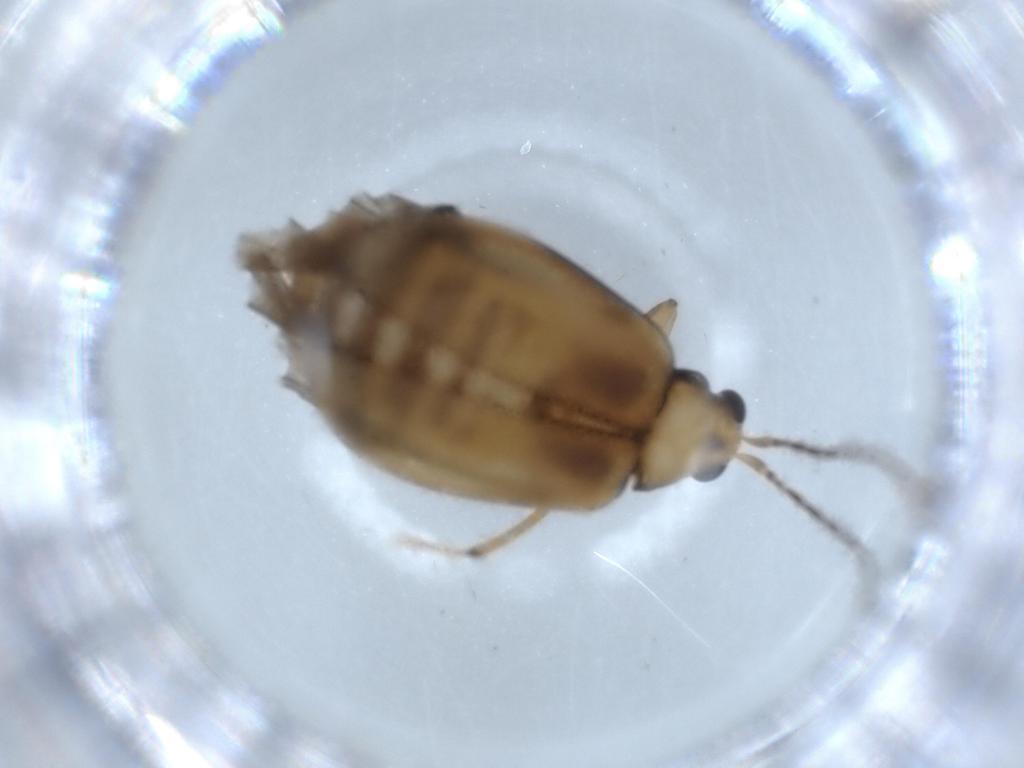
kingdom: Animalia
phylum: Arthropoda
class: Insecta
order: Coleoptera
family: Chrysomelidae
